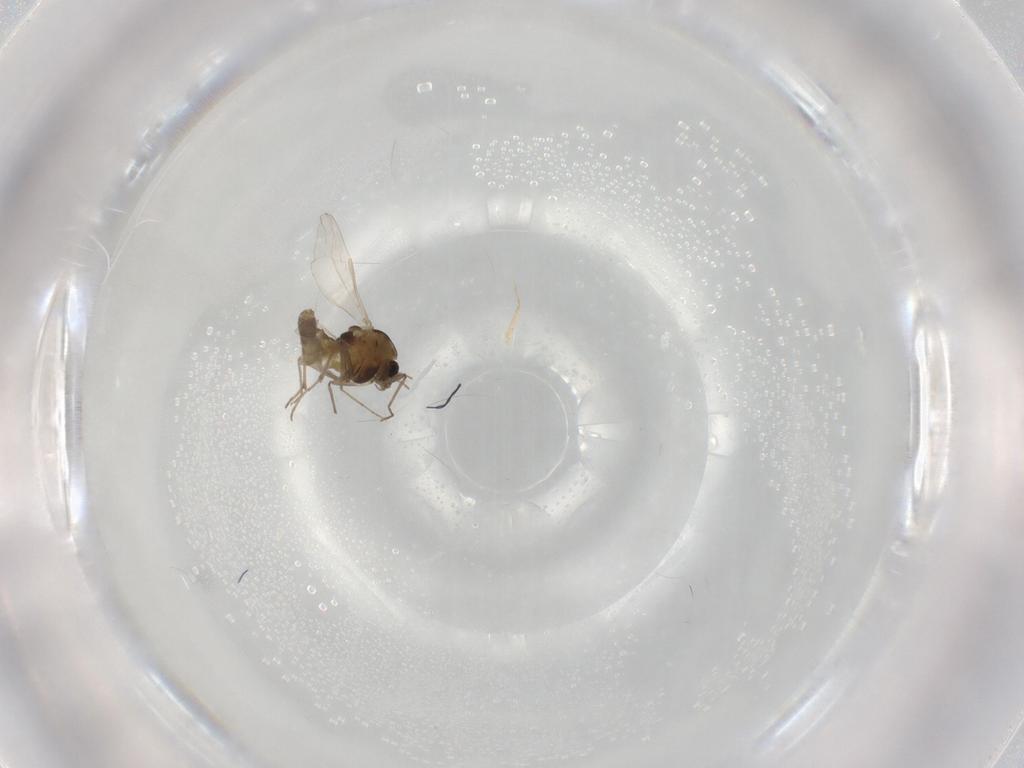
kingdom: Animalia
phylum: Arthropoda
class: Insecta
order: Diptera
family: Chironomidae
